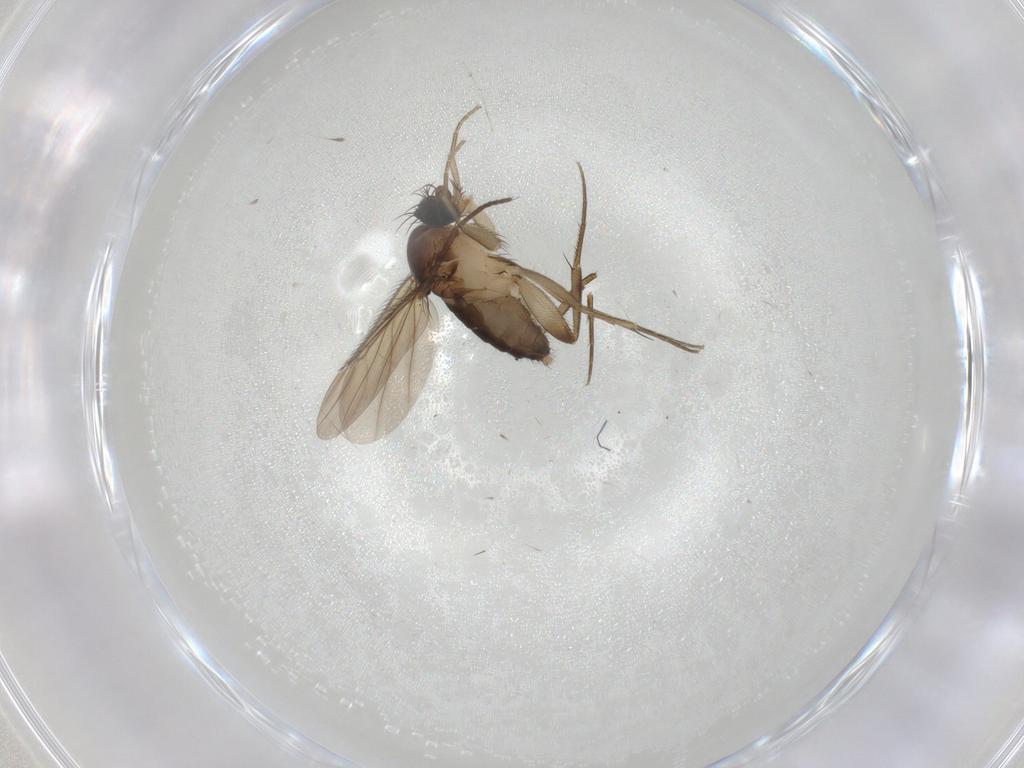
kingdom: Animalia
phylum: Arthropoda
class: Insecta
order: Diptera
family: Phoridae
